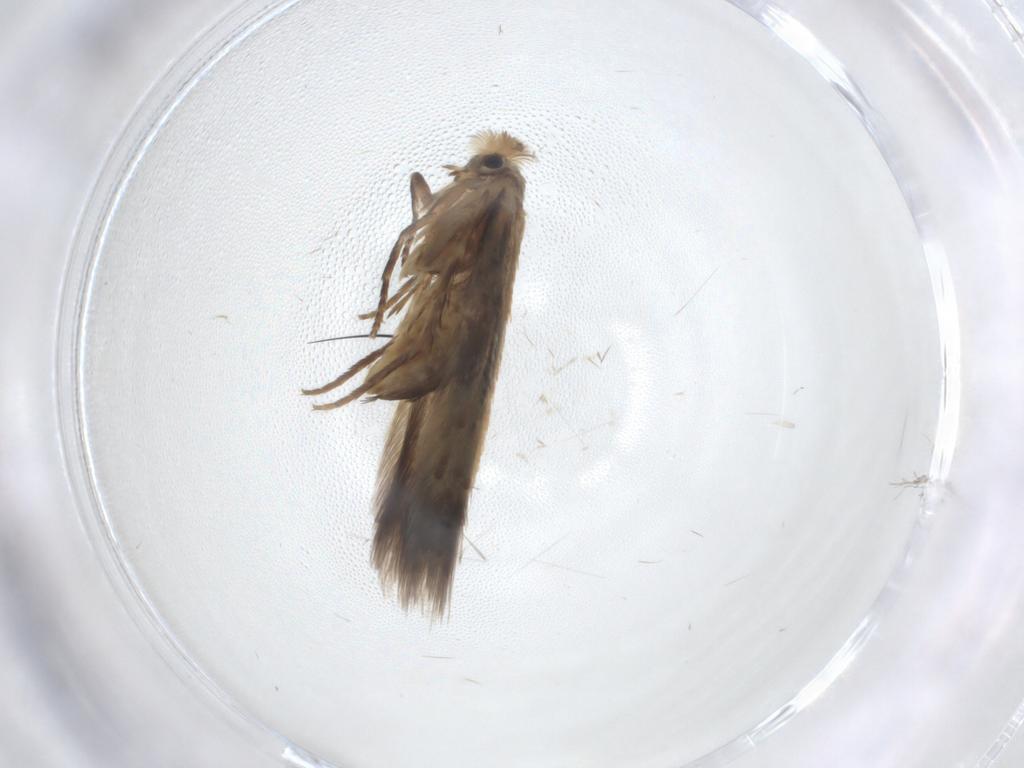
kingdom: Animalia
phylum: Arthropoda
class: Insecta
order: Lepidoptera
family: Nepticulidae
